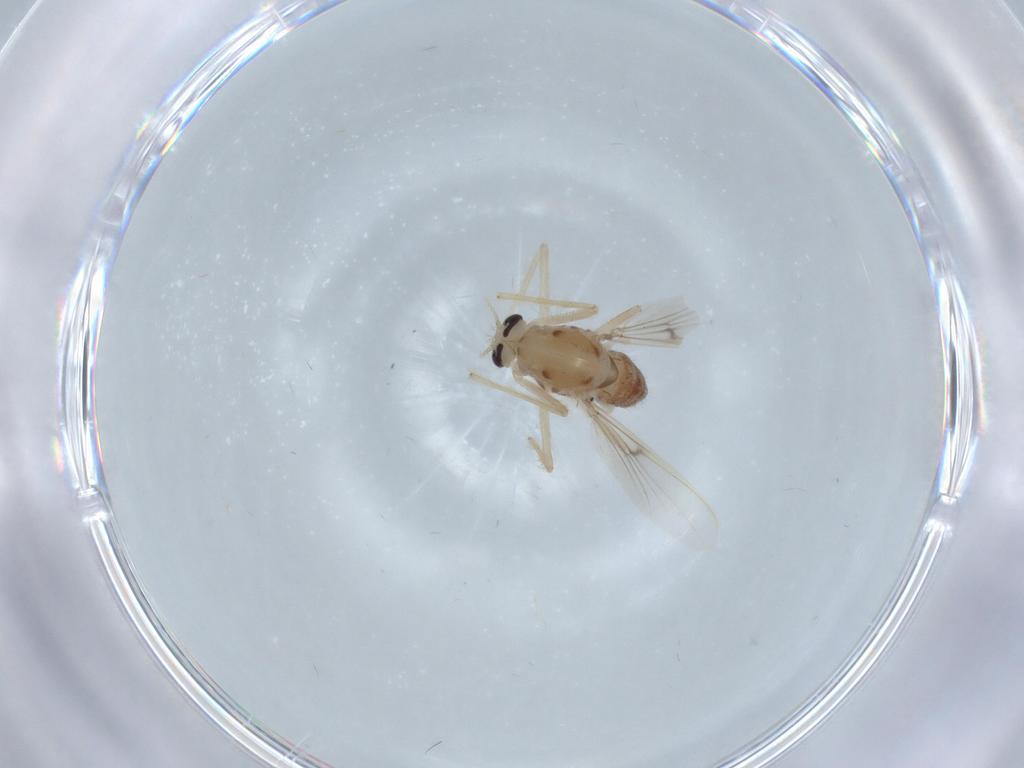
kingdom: Animalia
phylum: Arthropoda
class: Insecta
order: Diptera
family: Chironomidae
